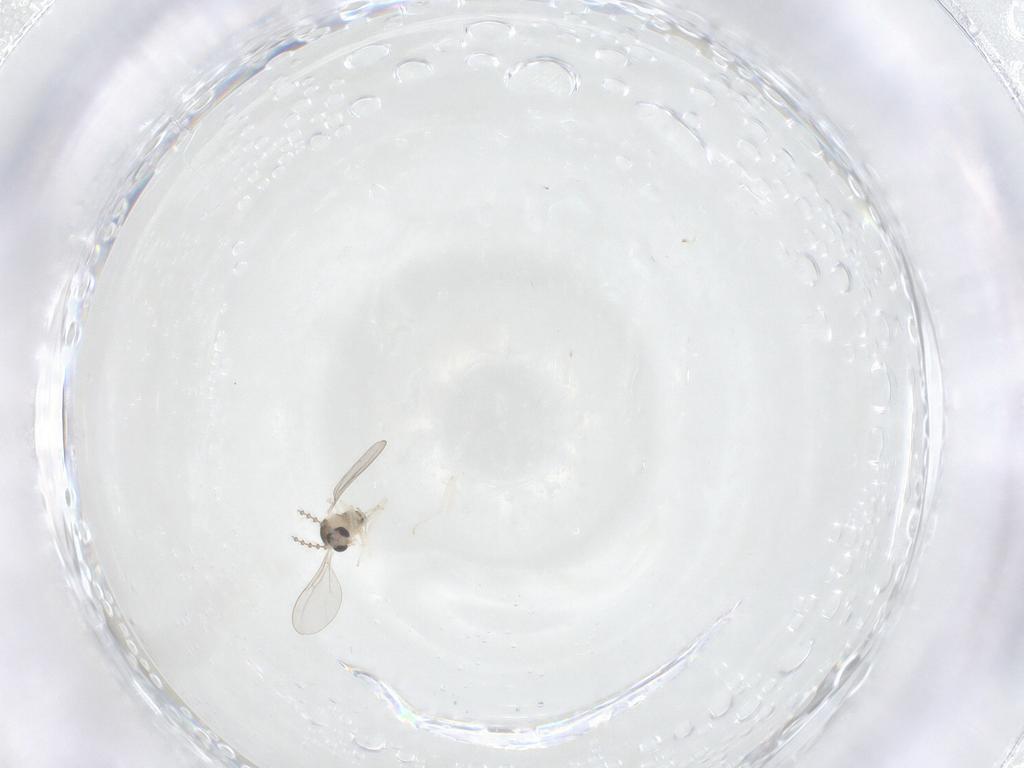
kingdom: Animalia
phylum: Arthropoda
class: Insecta
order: Diptera
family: Cecidomyiidae
